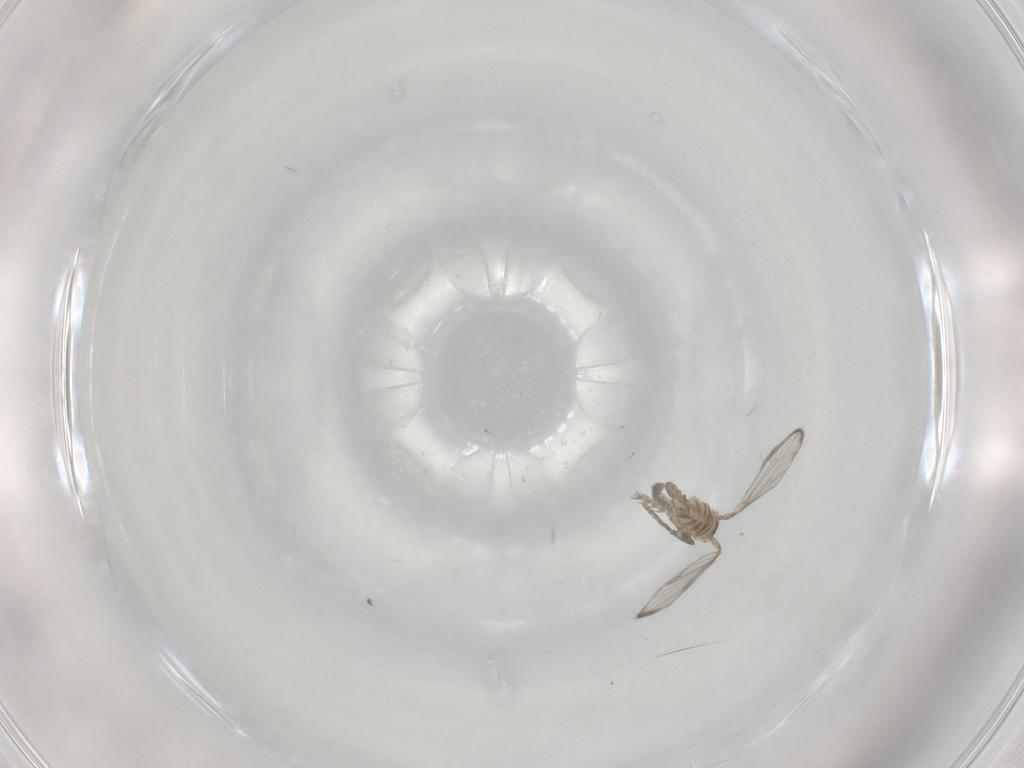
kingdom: Animalia
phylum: Arthropoda
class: Insecta
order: Diptera
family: Sphaeroceridae
